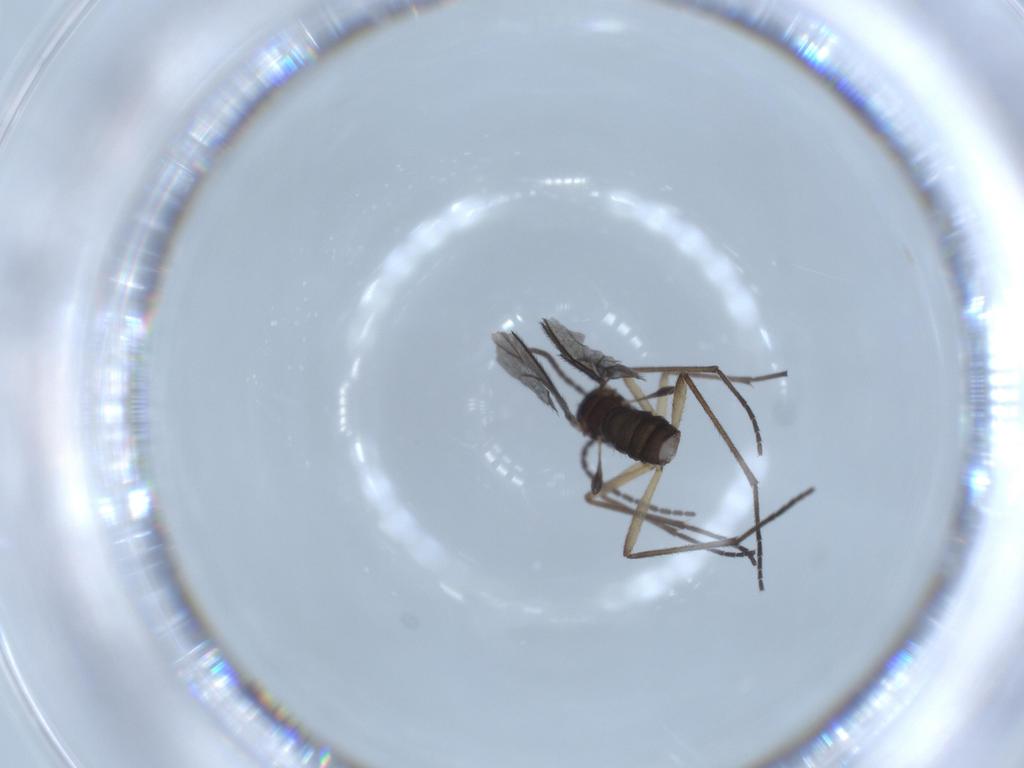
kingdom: Animalia
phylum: Arthropoda
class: Insecta
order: Diptera
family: Sciaridae
